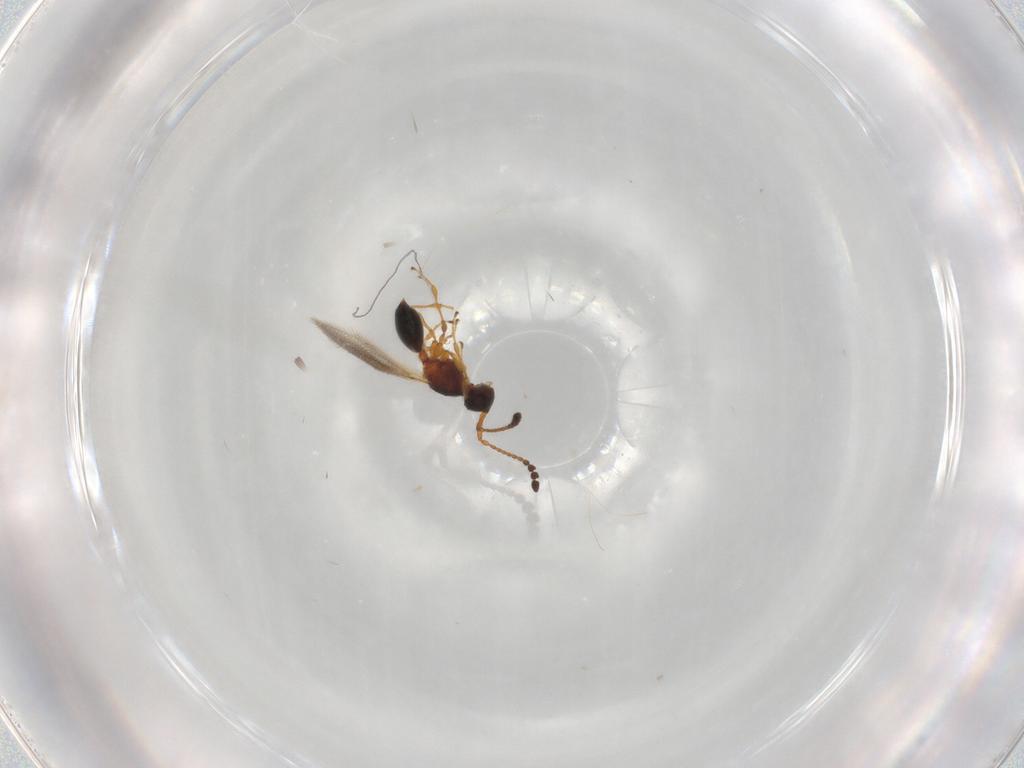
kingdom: Animalia
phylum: Arthropoda
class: Insecta
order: Hymenoptera
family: Diapriidae
